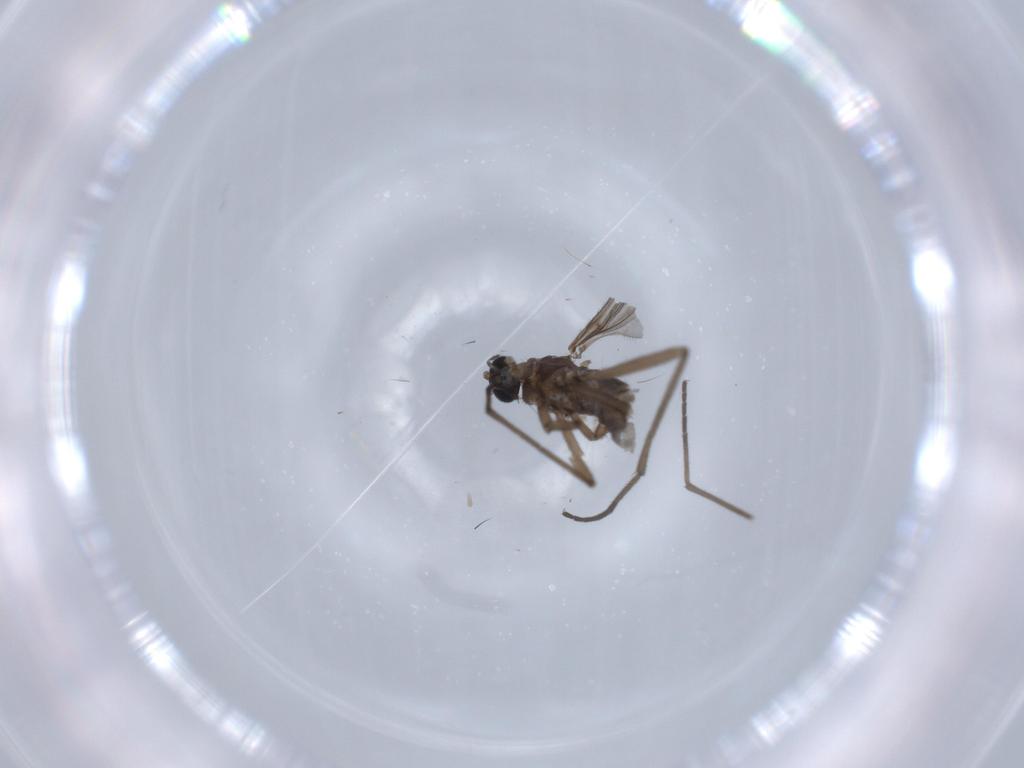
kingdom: Animalia
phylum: Arthropoda
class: Insecta
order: Diptera
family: Sciaridae
